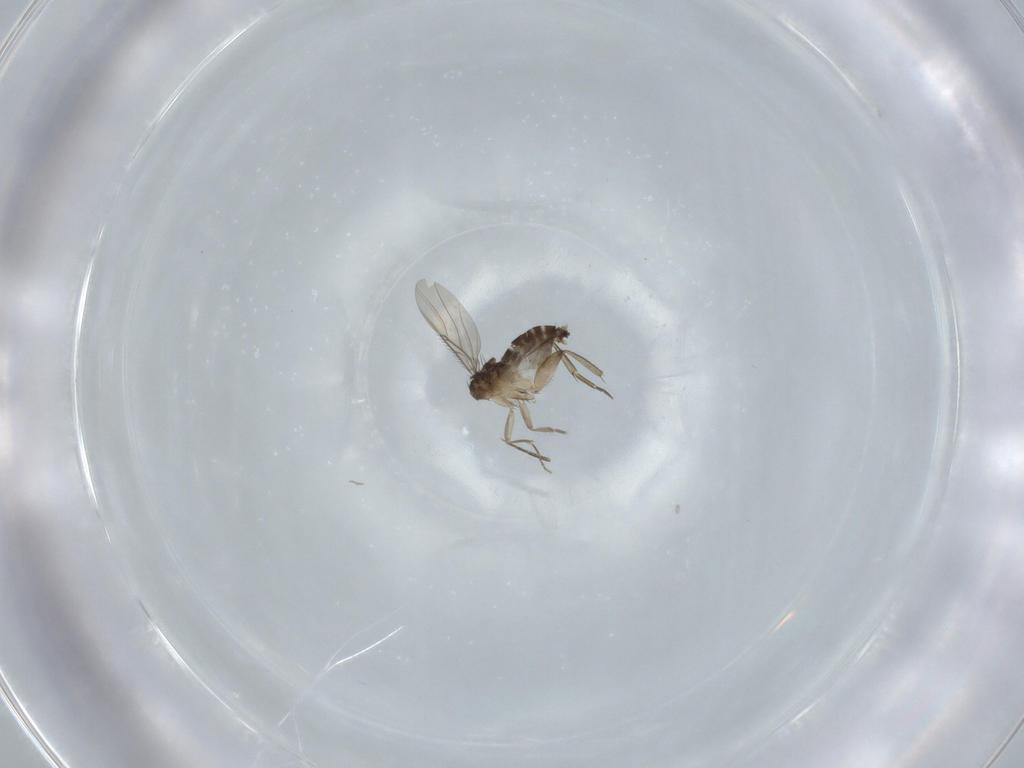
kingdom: Animalia
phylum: Arthropoda
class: Insecta
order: Diptera
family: Phoridae
